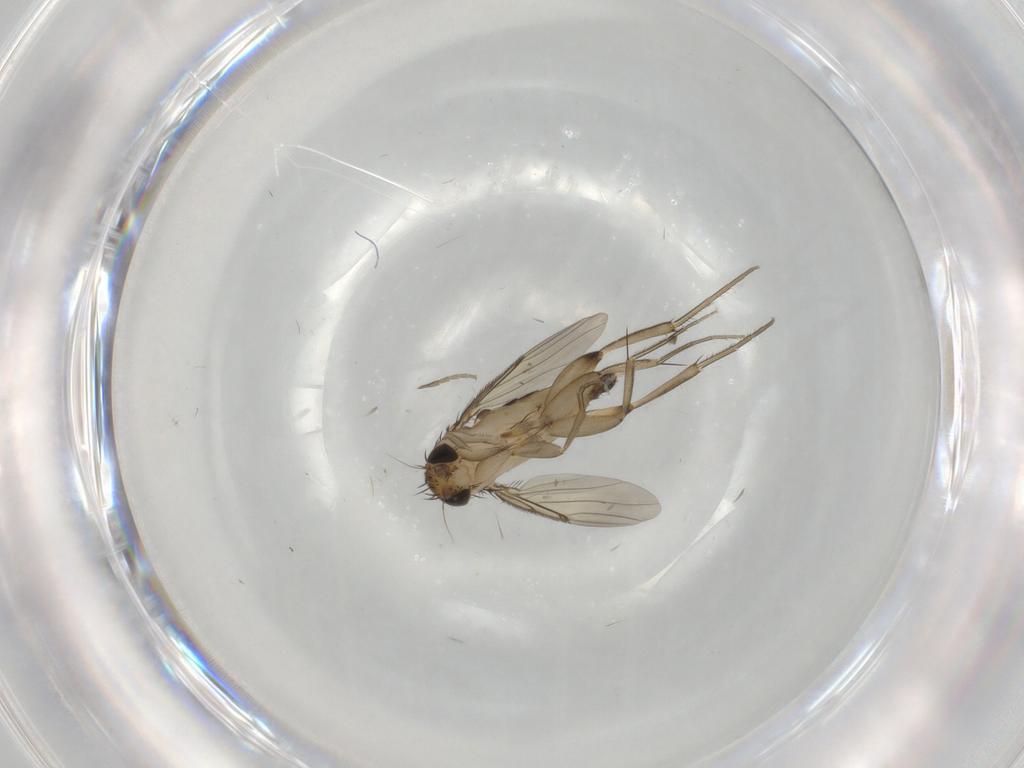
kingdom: Animalia
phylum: Arthropoda
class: Insecta
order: Diptera
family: Phoridae
